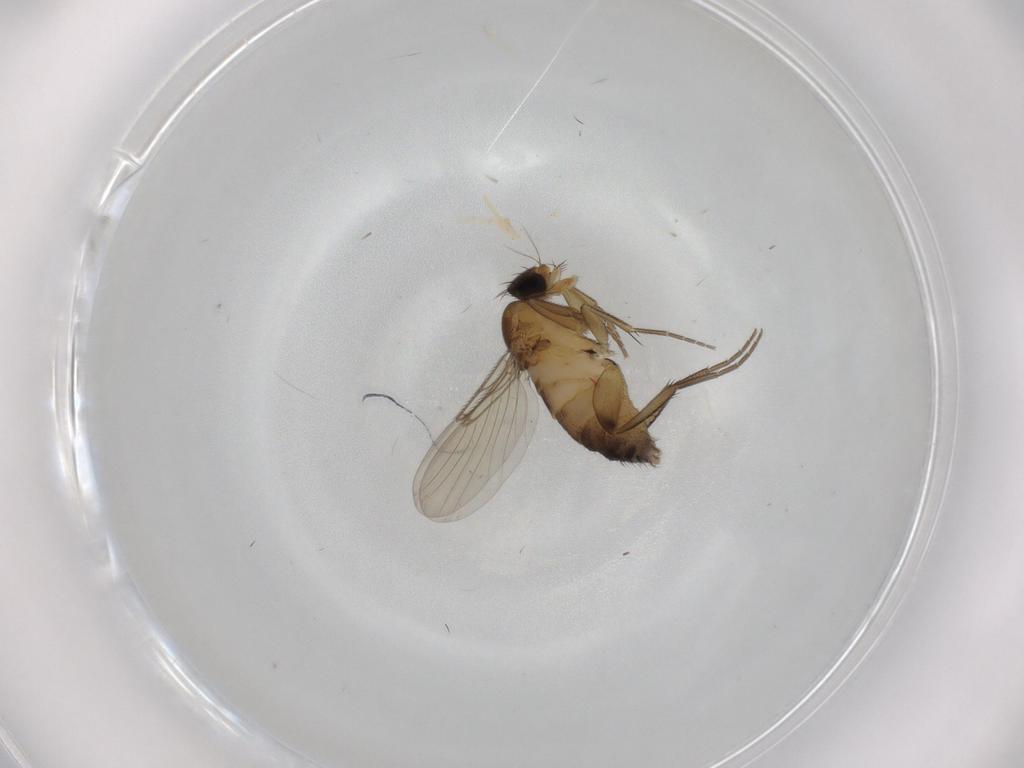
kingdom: Animalia
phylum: Arthropoda
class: Insecta
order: Diptera
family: Phoridae
